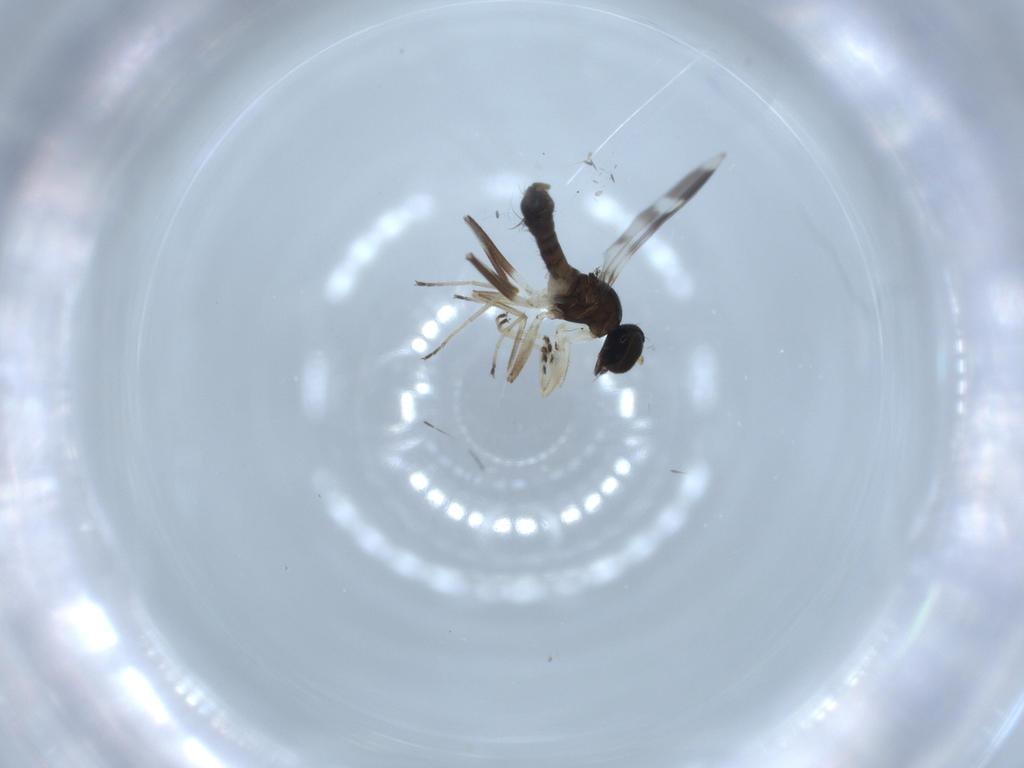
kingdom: Animalia
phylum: Arthropoda
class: Insecta
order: Diptera
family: Hybotidae
